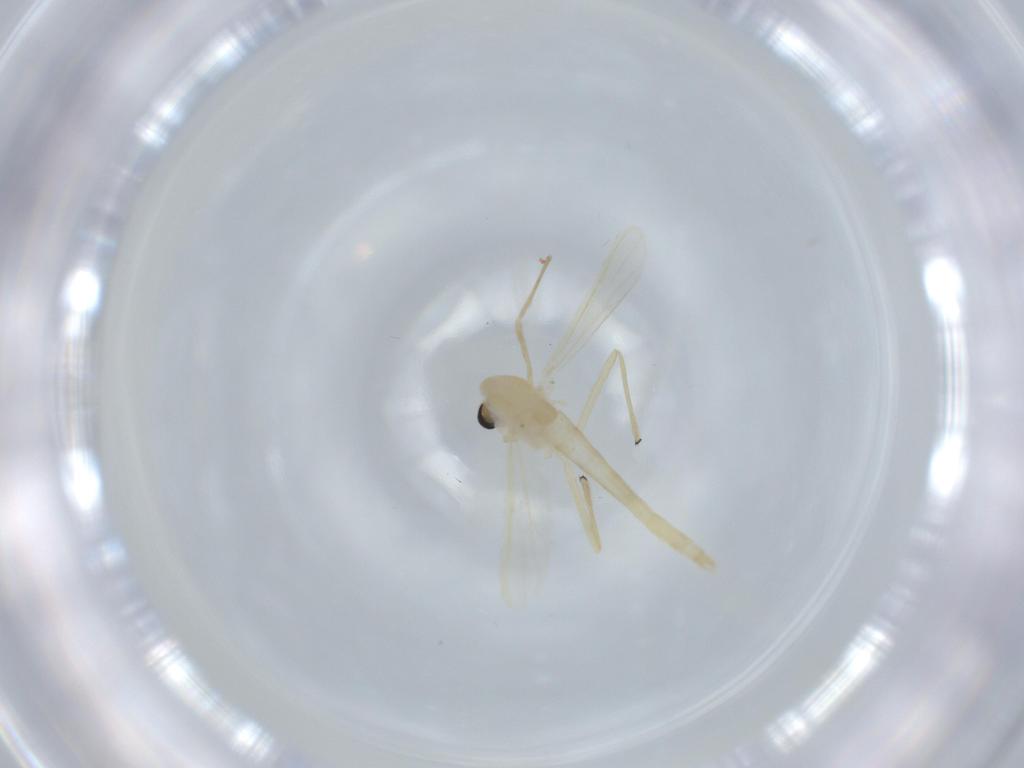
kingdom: Animalia
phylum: Arthropoda
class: Insecta
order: Diptera
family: Chironomidae
